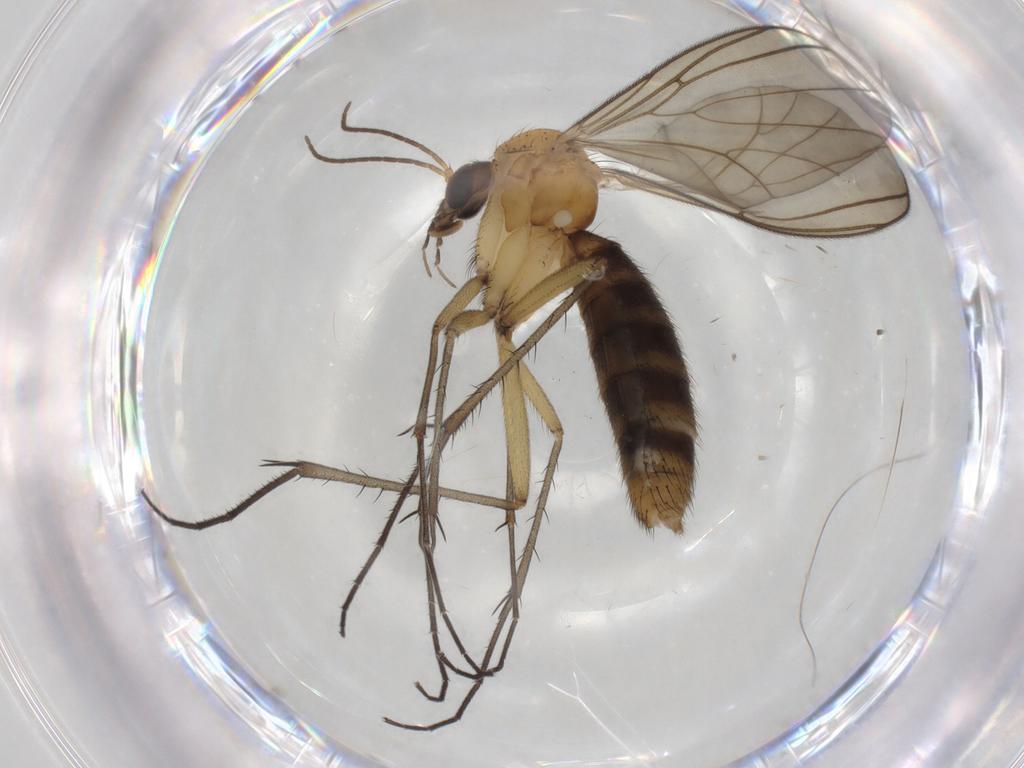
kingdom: Animalia
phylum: Arthropoda
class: Insecta
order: Diptera
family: Mycetophilidae
